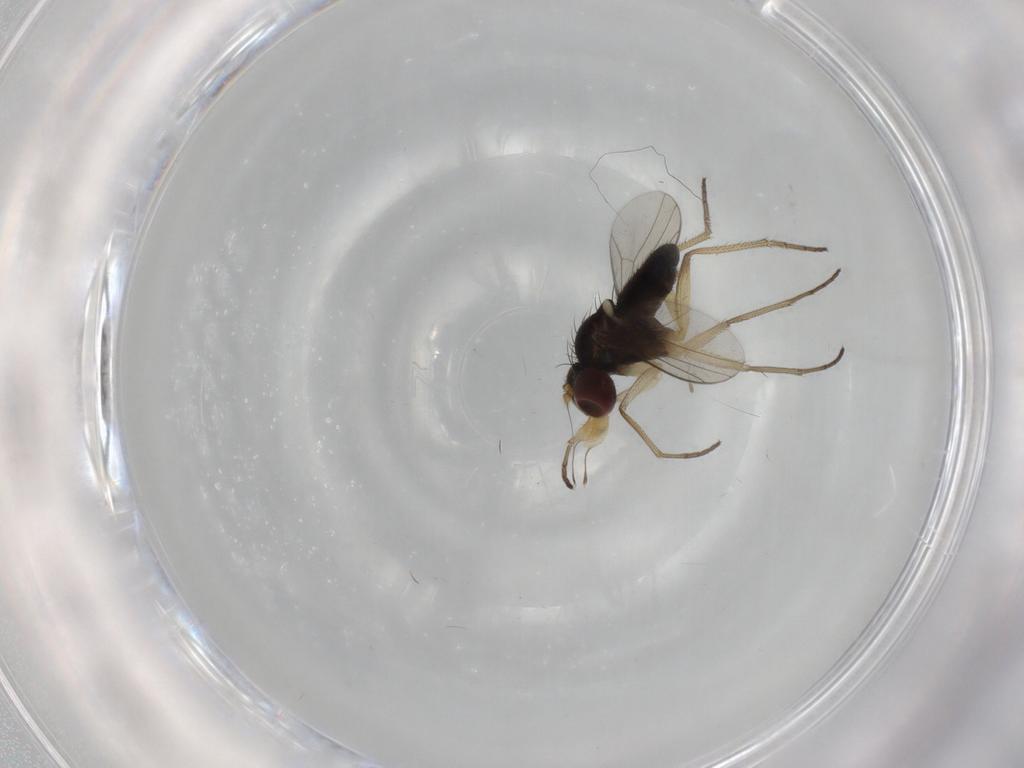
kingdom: Animalia
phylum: Arthropoda
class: Insecta
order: Diptera
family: Dolichopodidae
